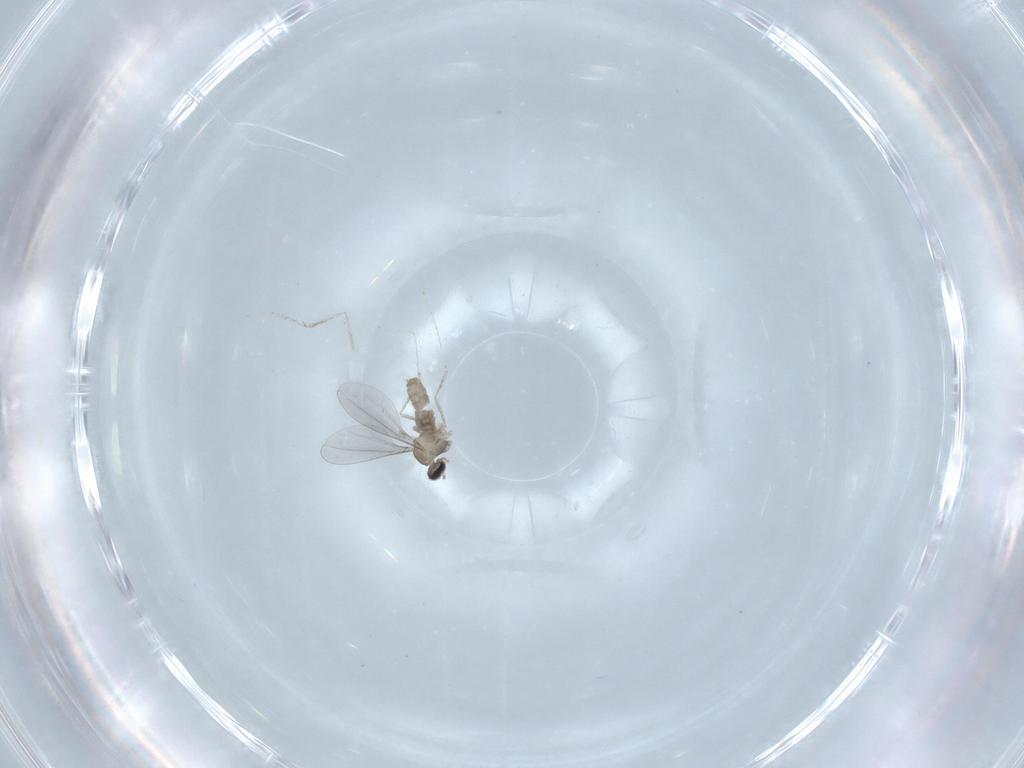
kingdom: Animalia
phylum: Arthropoda
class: Insecta
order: Diptera
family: Cecidomyiidae
